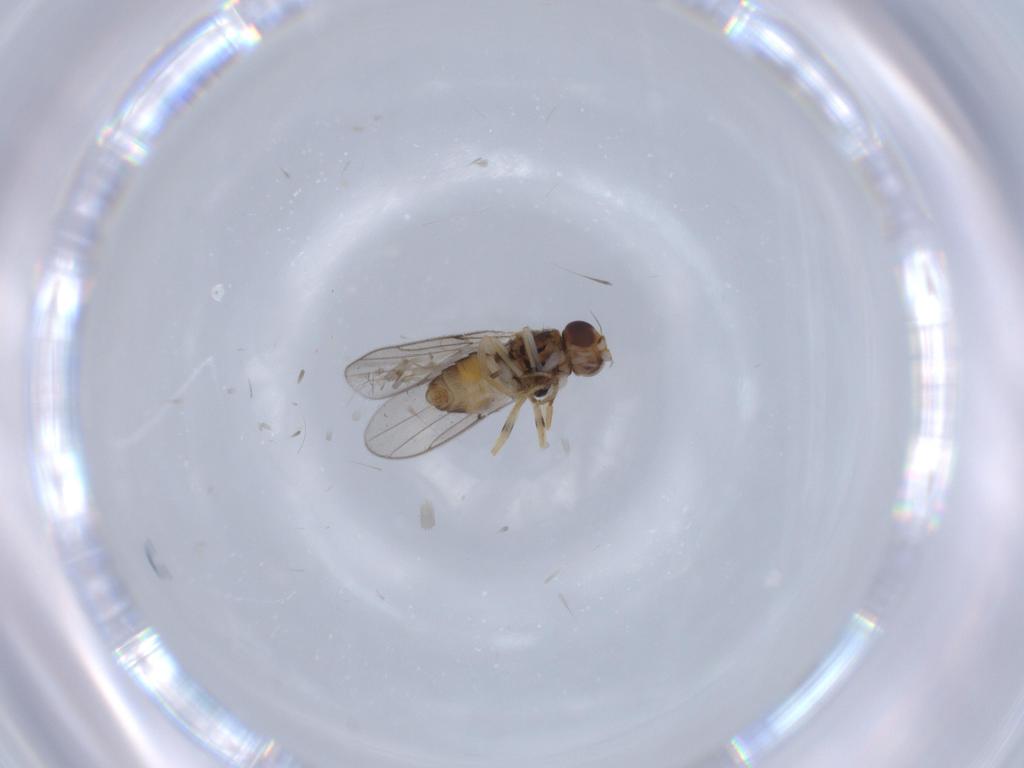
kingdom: Animalia
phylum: Arthropoda
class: Insecta
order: Diptera
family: Chloropidae
